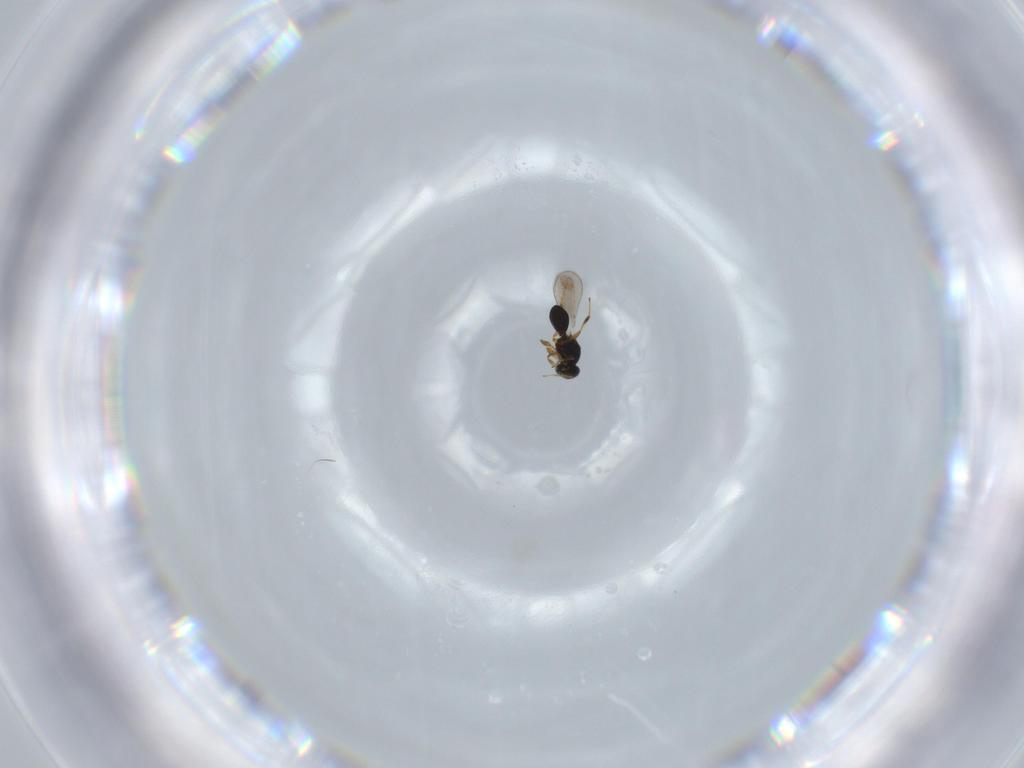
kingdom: Animalia
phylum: Arthropoda
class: Insecta
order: Hymenoptera
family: Platygastridae
